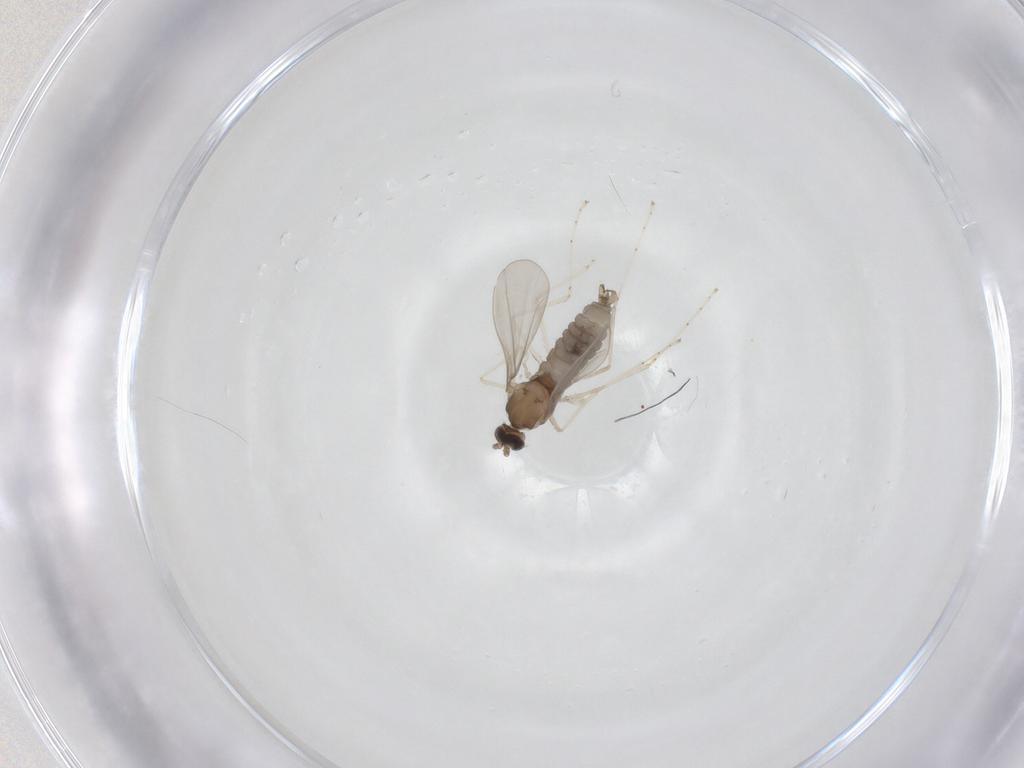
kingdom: Animalia
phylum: Arthropoda
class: Insecta
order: Diptera
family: Cecidomyiidae
